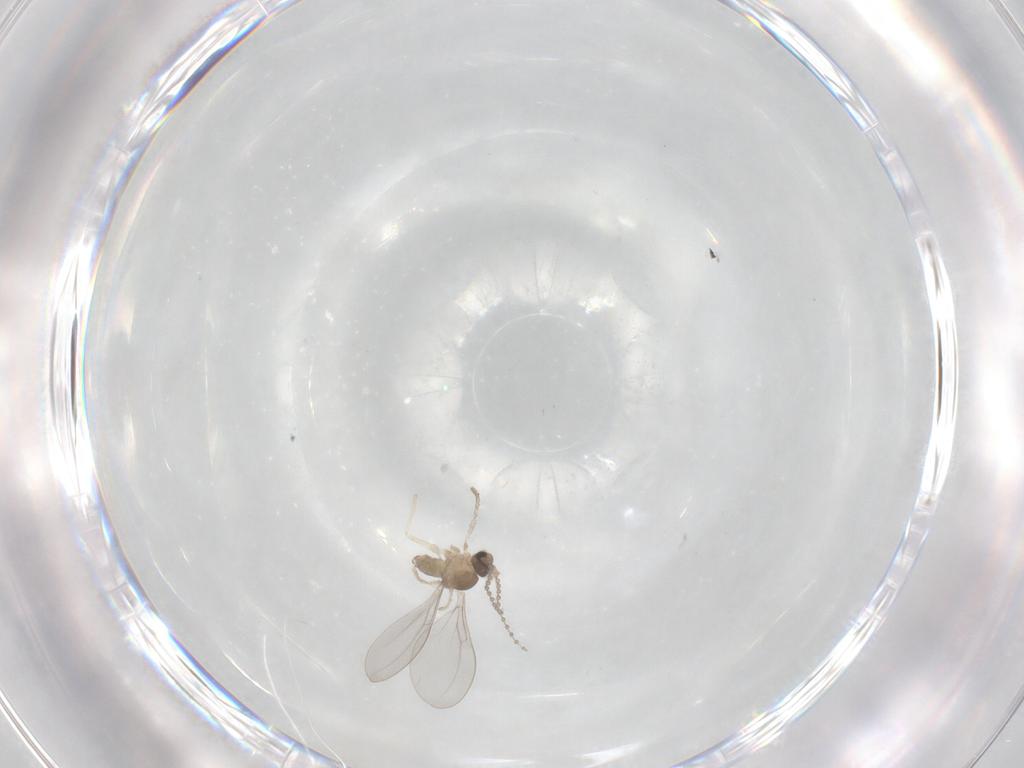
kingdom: Animalia
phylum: Arthropoda
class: Insecta
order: Diptera
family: Cecidomyiidae
